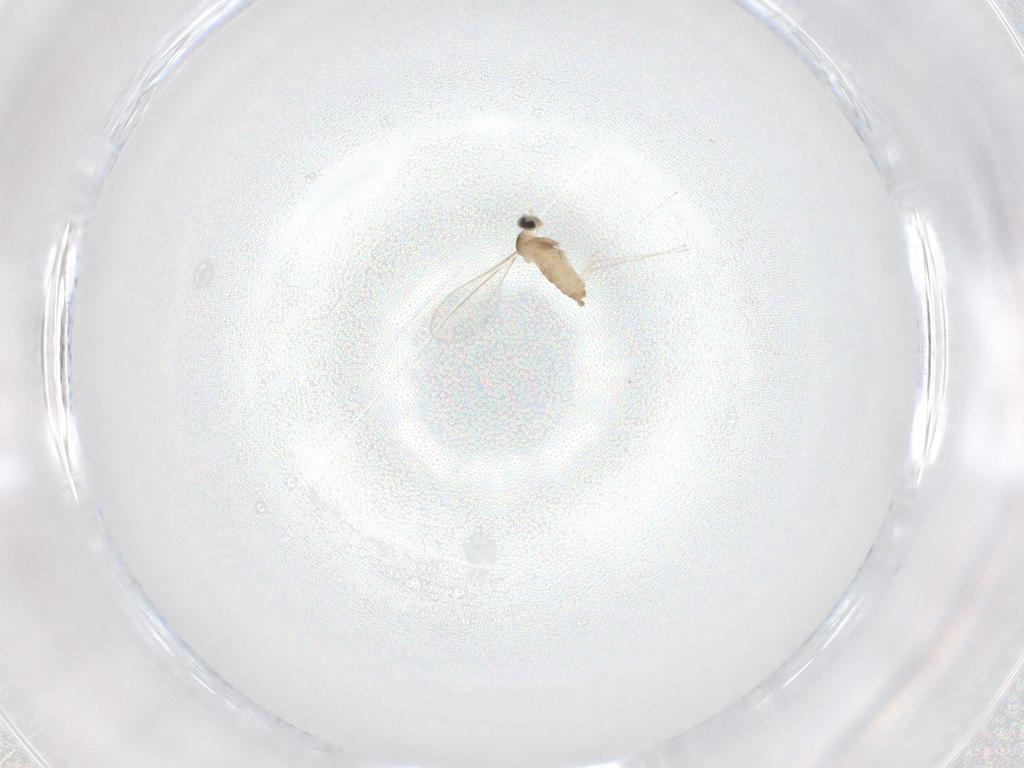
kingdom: Animalia
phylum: Arthropoda
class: Insecta
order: Diptera
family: Cecidomyiidae
